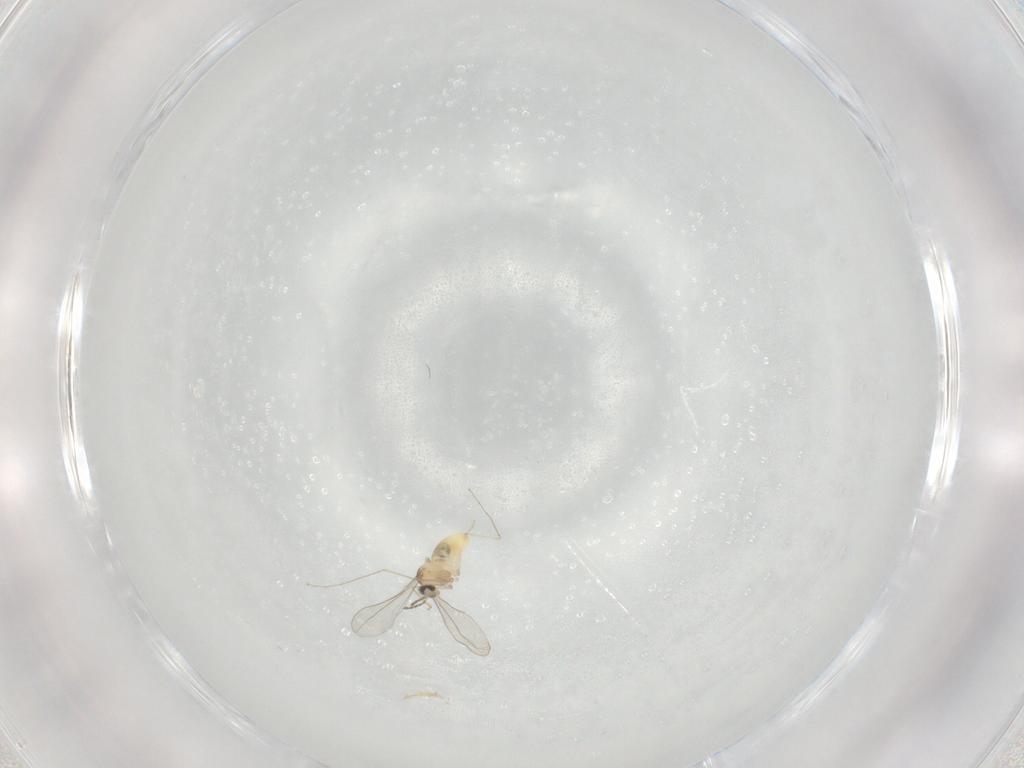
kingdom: Animalia
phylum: Arthropoda
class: Insecta
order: Diptera
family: Cecidomyiidae
